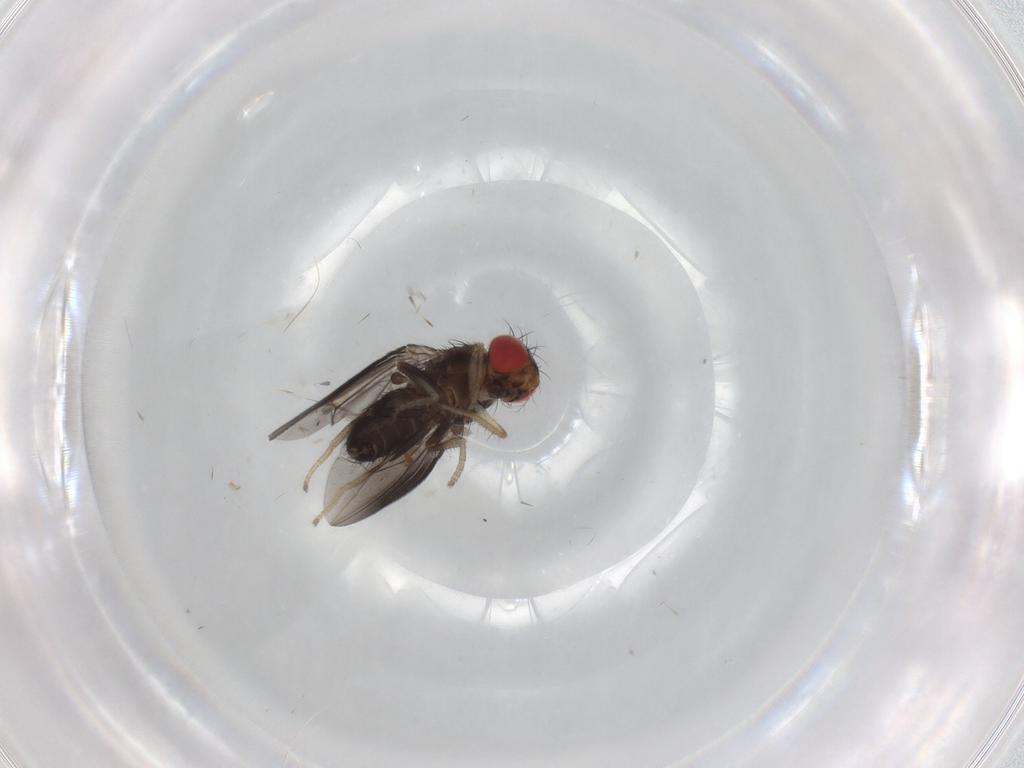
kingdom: Animalia
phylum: Arthropoda
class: Insecta
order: Diptera
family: Drosophilidae
